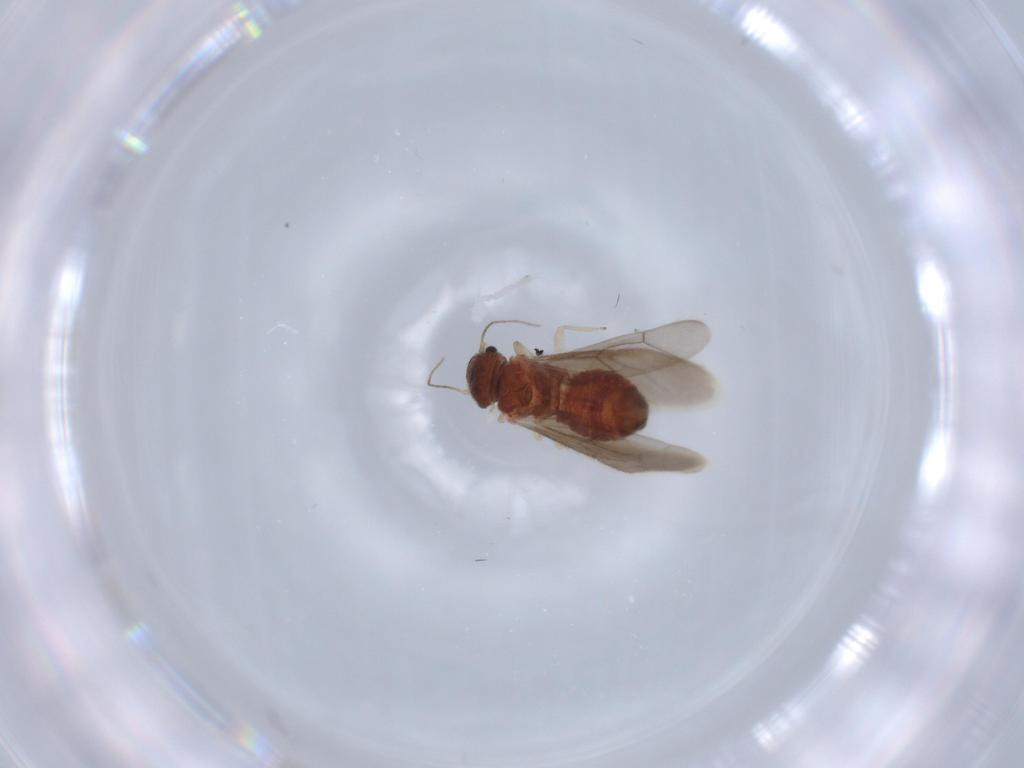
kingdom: Animalia
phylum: Arthropoda
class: Insecta
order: Psocodea
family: Archipsocidae
